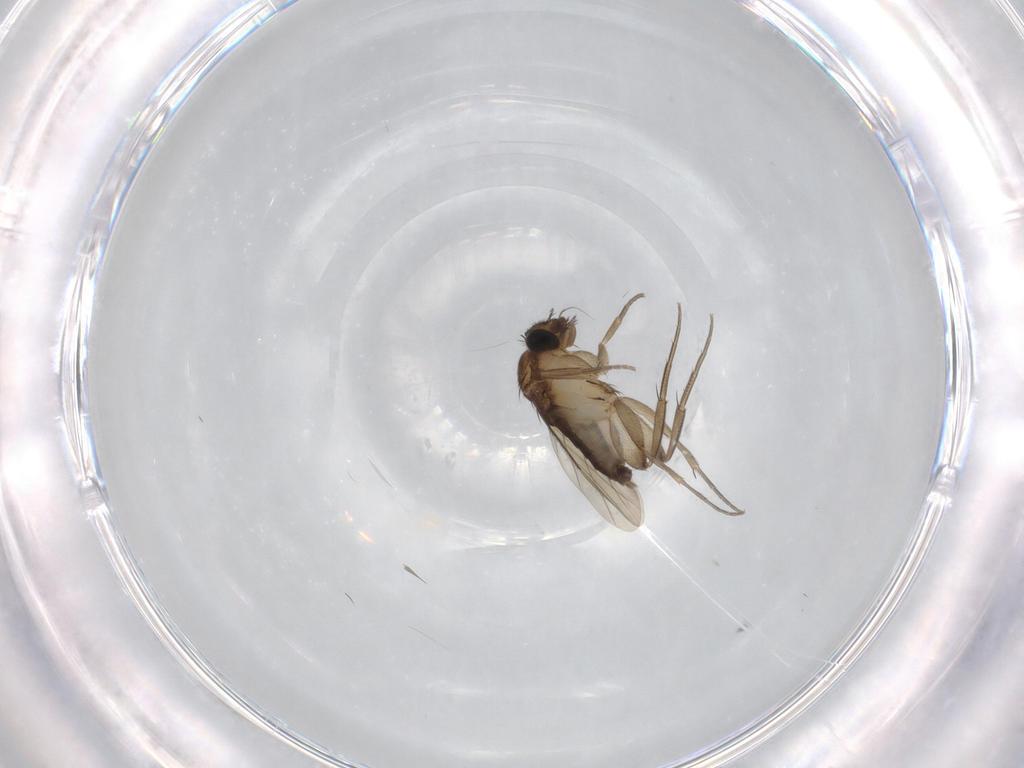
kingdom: Animalia
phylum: Arthropoda
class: Insecta
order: Diptera
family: Phoridae
